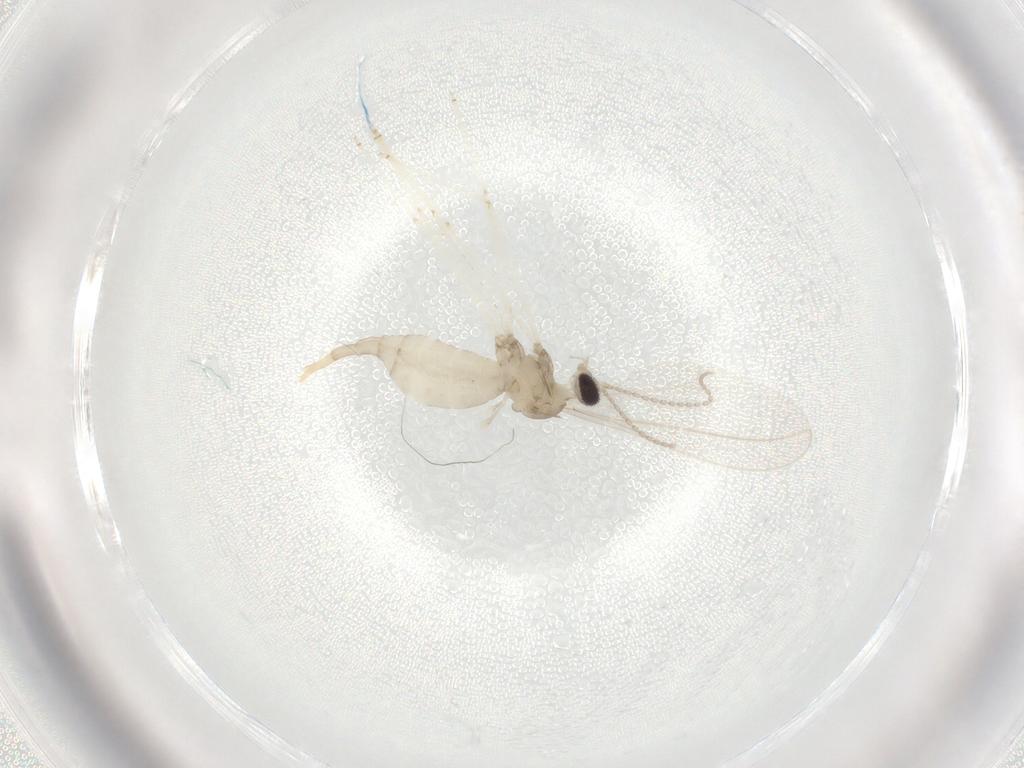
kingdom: Animalia
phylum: Arthropoda
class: Insecta
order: Diptera
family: Cecidomyiidae
